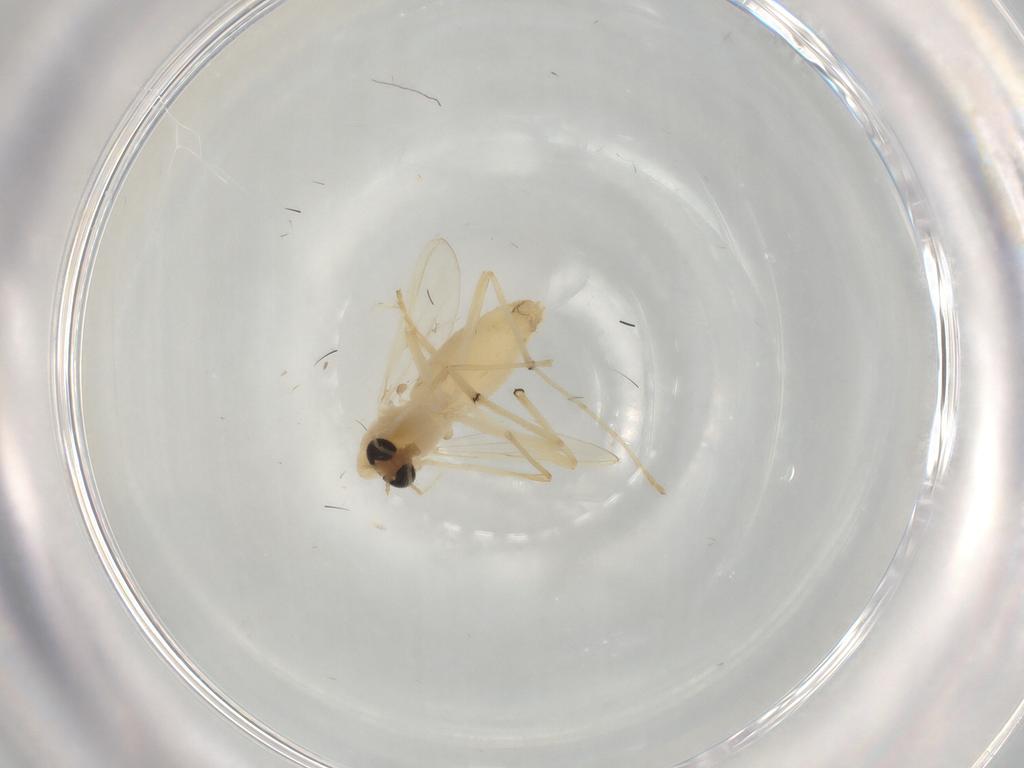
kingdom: Animalia
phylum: Arthropoda
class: Insecta
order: Diptera
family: Chironomidae
